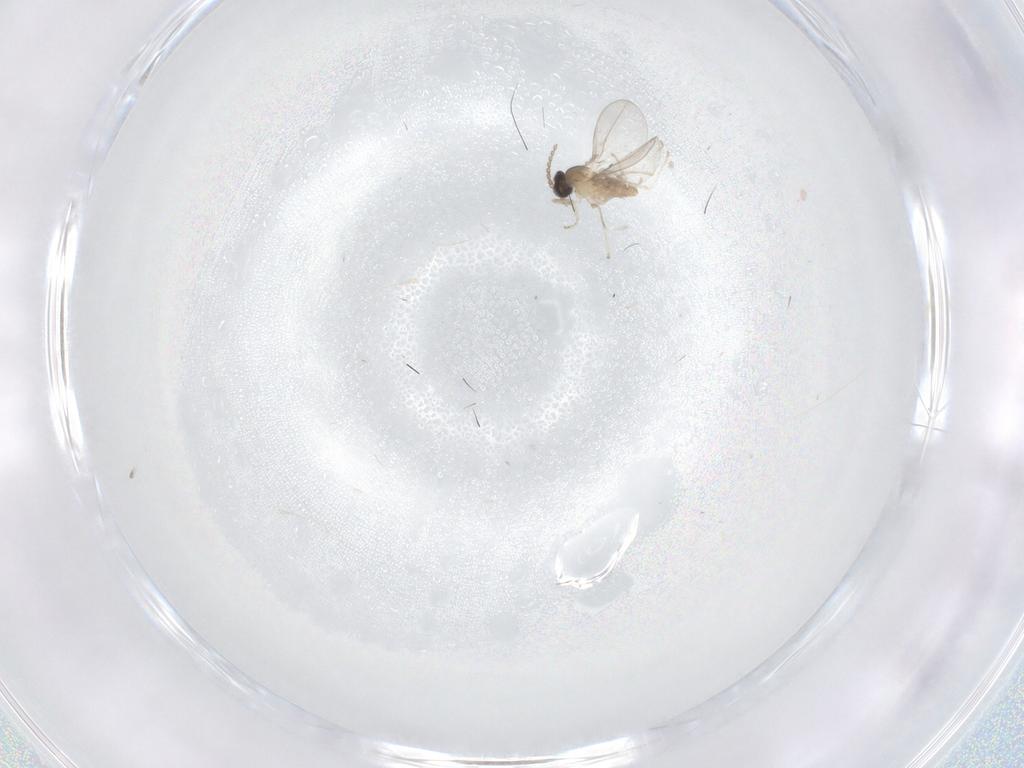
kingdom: Animalia
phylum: Arthropoda
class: Insecta
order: Diptera
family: Cecidomyiidae
